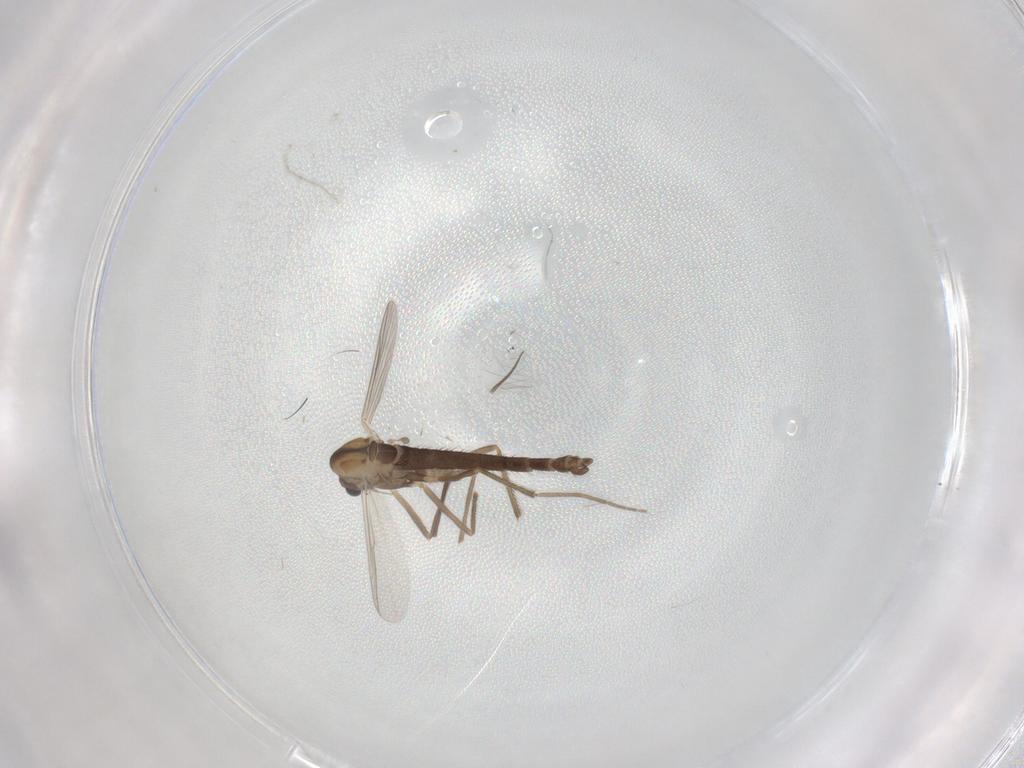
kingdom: Animalia
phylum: Arthropoda
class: Insecta
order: Diptera
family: Chironomidae
